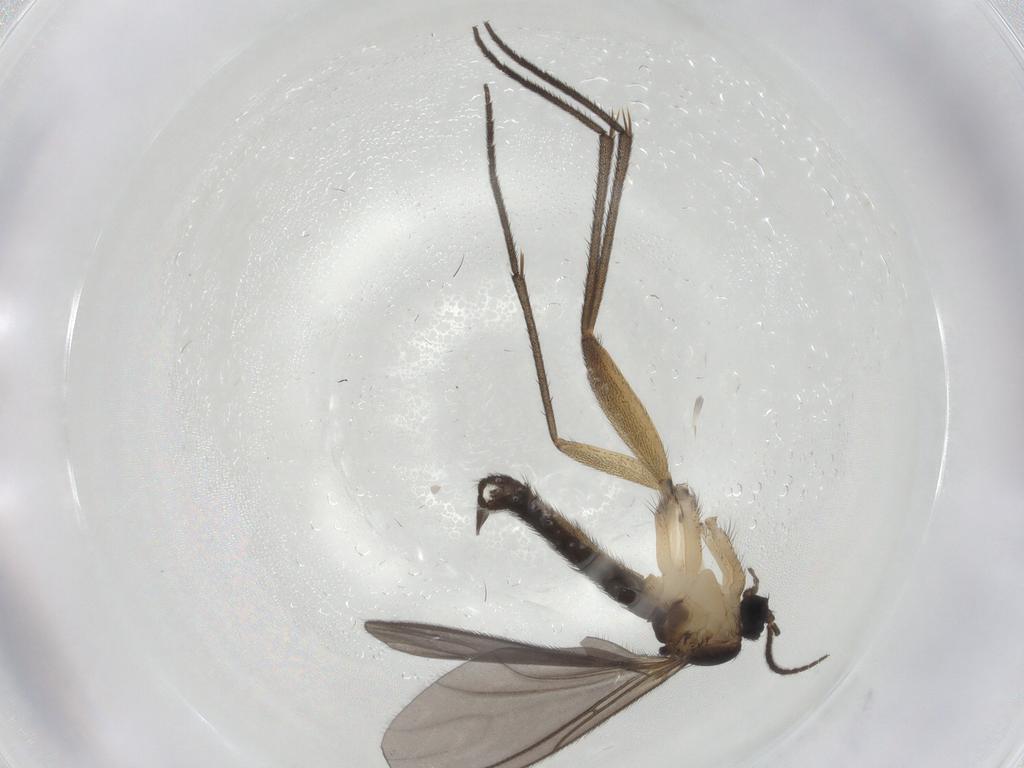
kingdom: Animalia
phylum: Arthropoda
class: Insecta
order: Diptera
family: Sciaridae
